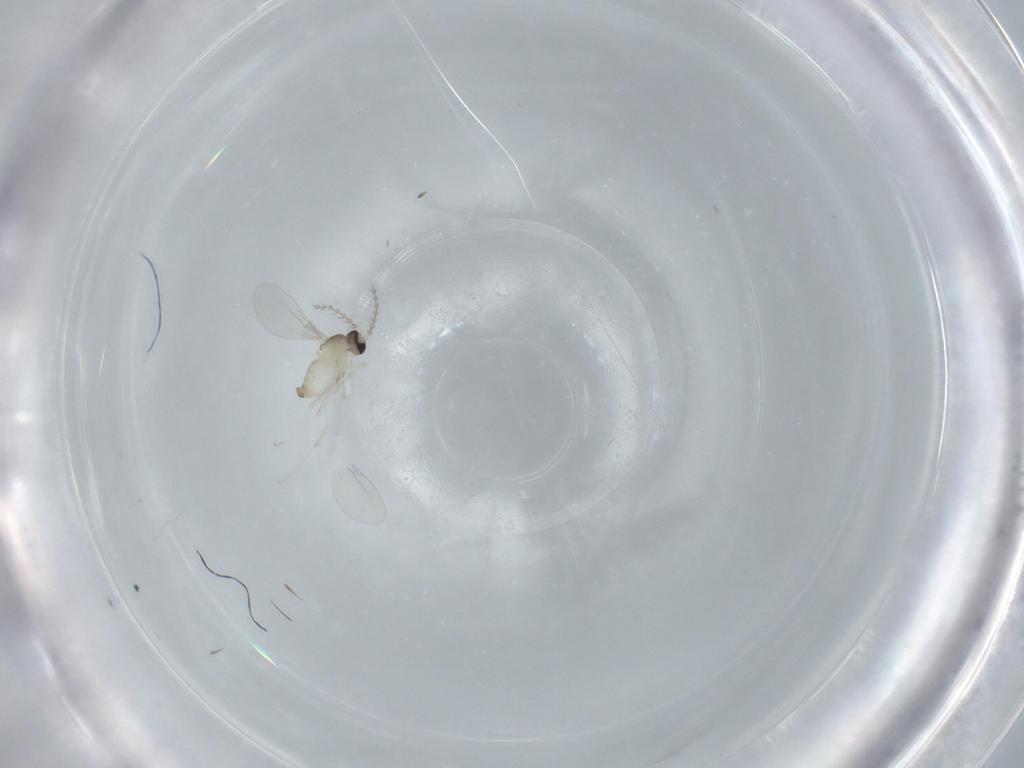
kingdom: Animalia
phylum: Arthropoda
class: Insecta
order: Diptera
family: Cecidomyiidae
